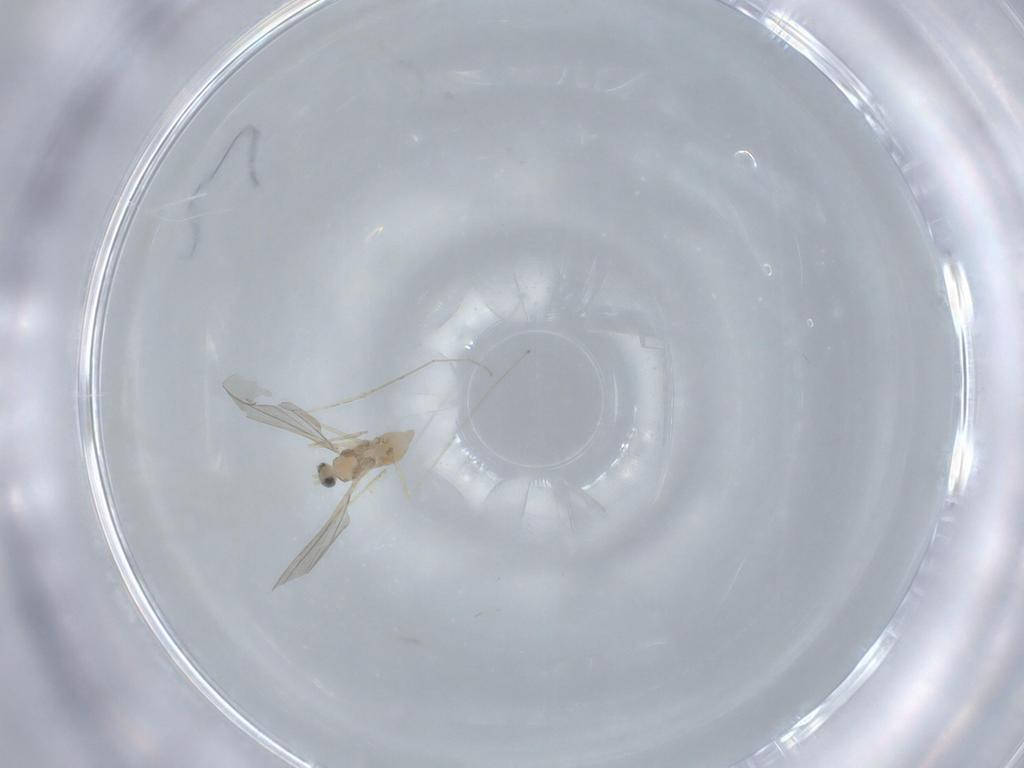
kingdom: Animalia
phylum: Arthropoda
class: Insecta
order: Diptera
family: Cecidomyiidae
